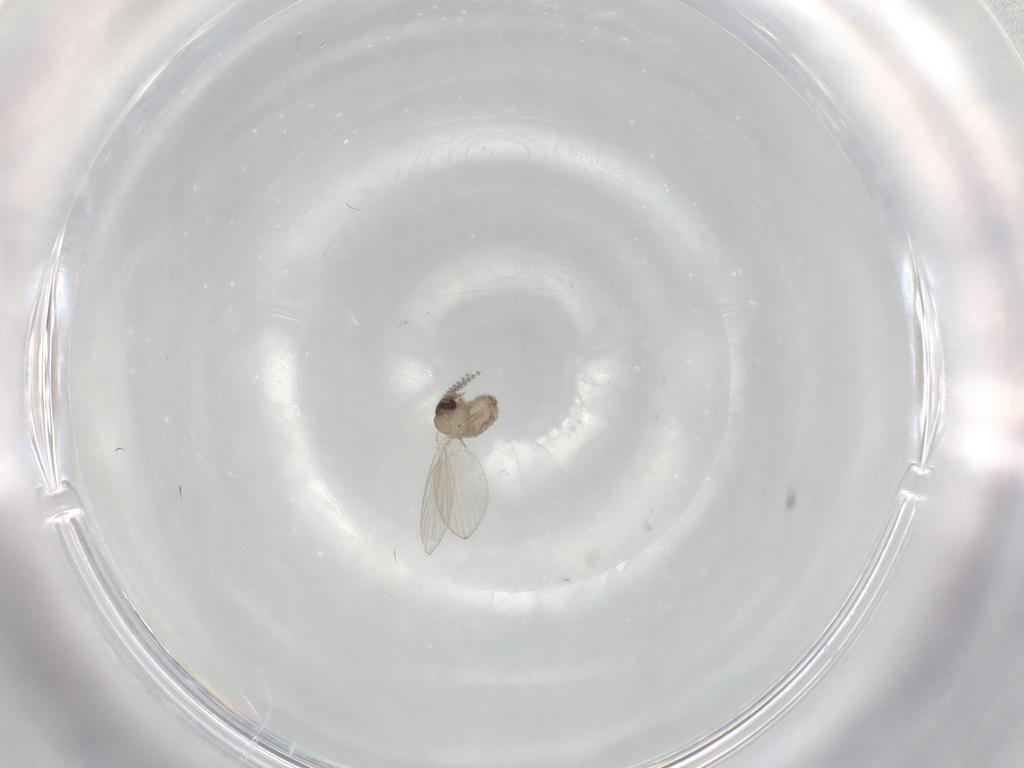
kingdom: Animalia
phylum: Arthropoda
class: Insecta
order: Diptera
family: Psychodidae
